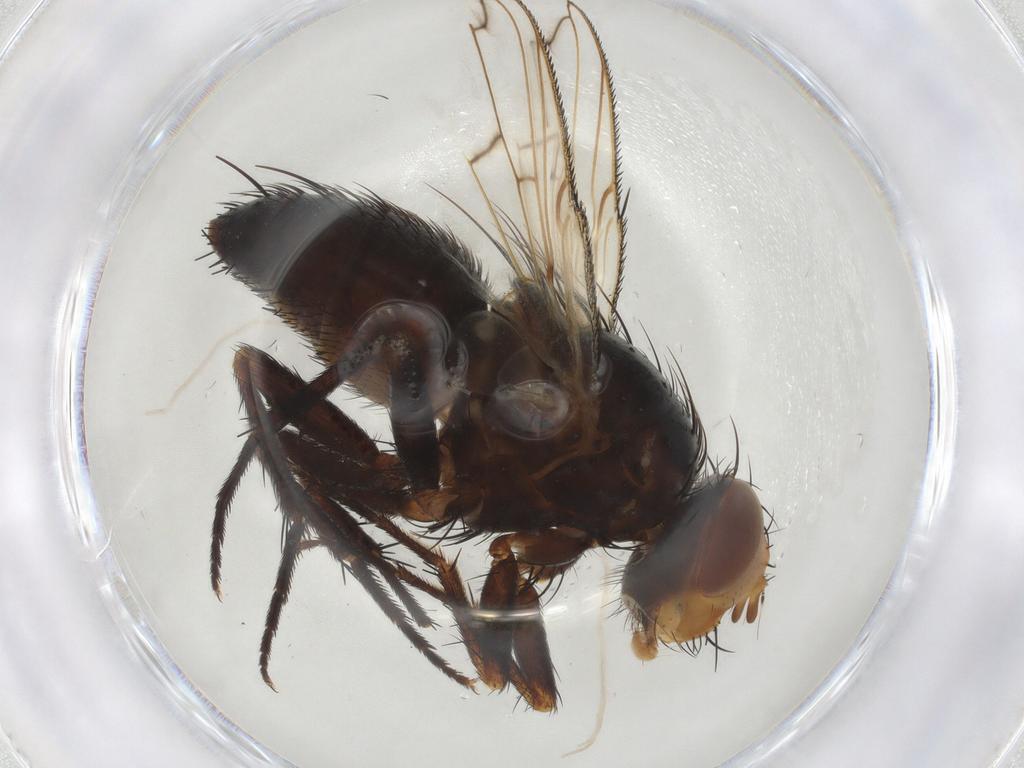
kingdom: Animalia
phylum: Arthropoda
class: Insecta
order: Diptera
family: Tachinidae
